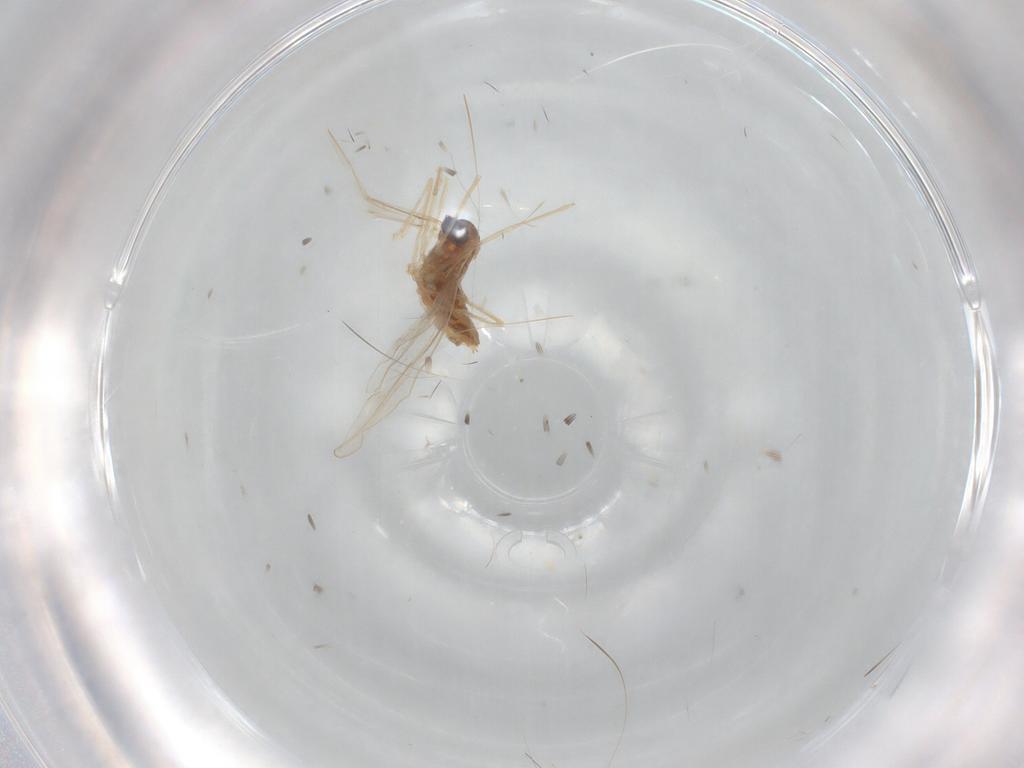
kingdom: Animalia
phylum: Arthropoda
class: Insecta
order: Diptera
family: Cecidomyiidae
